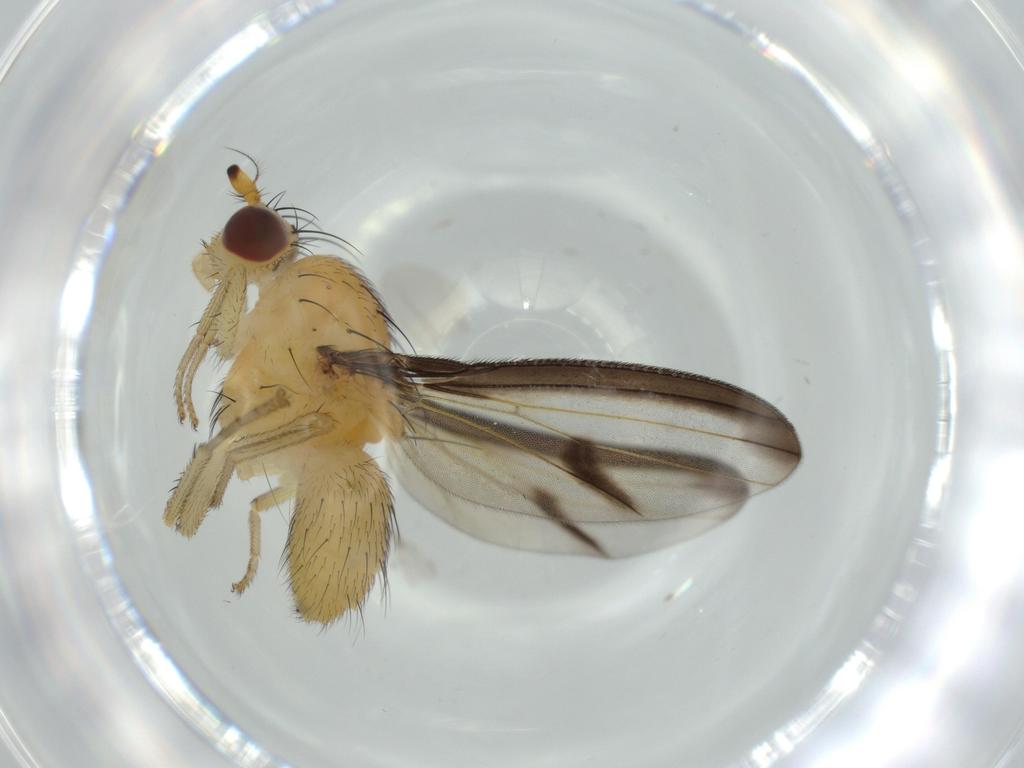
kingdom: Animalia
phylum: Arthropoda
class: Insecta
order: Diptera
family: Lauxaniidae
